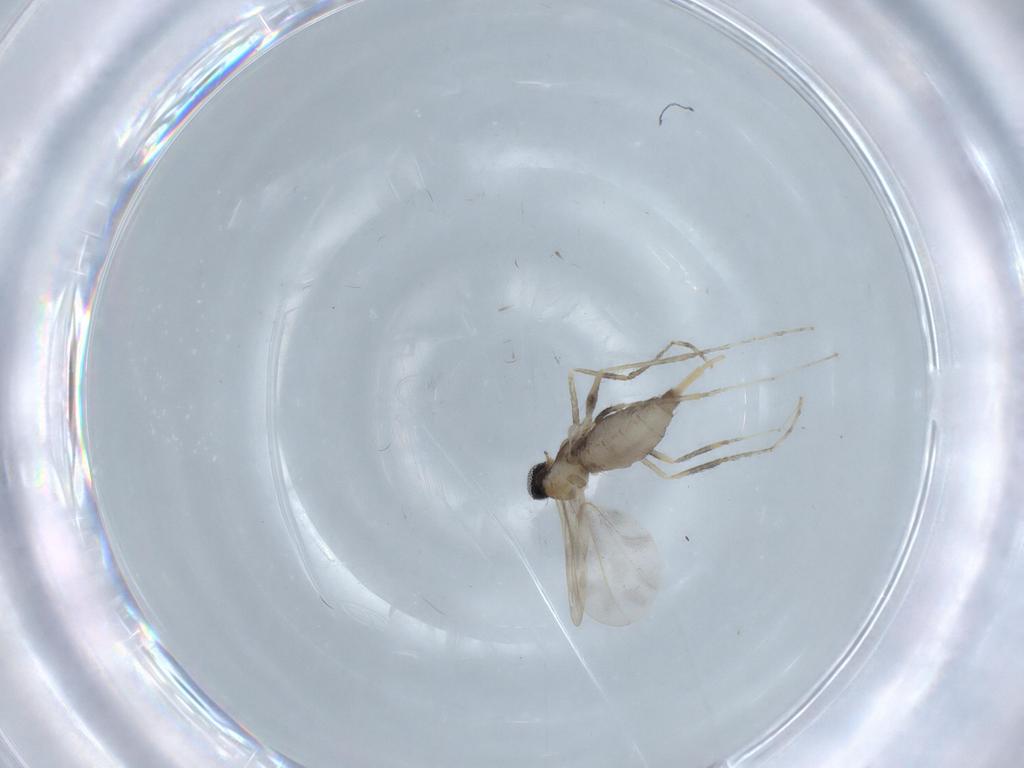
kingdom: Animalia
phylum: Arthropoda
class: Insecta
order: Diptera
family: Cecidomyiidae
